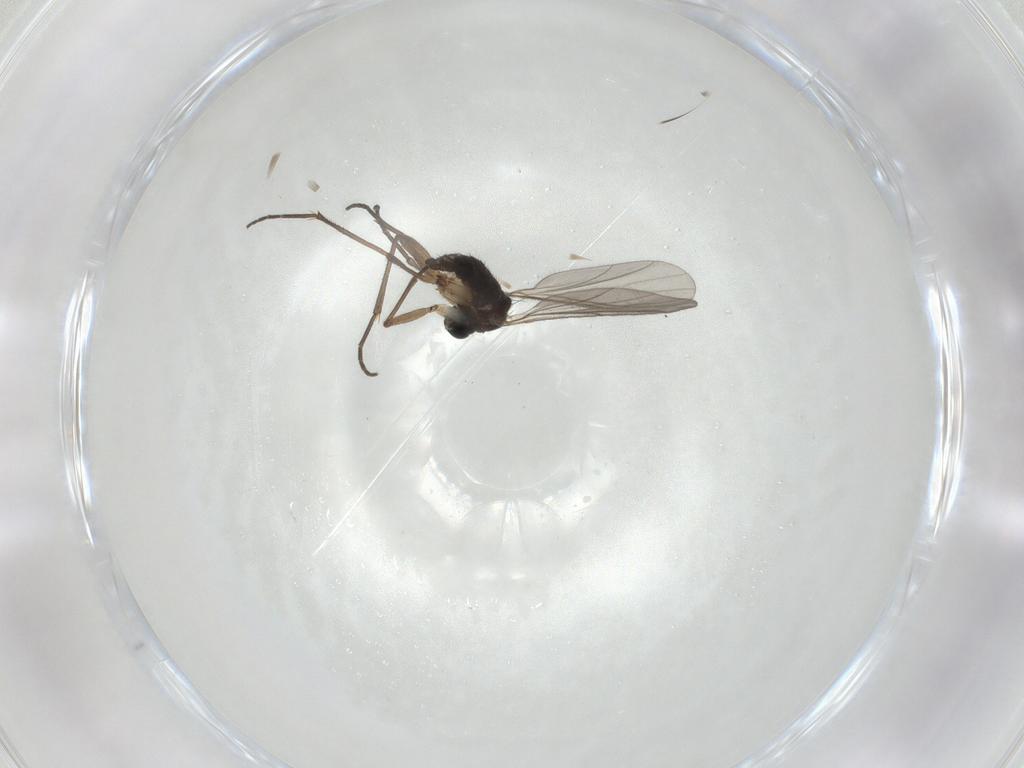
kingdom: Animalia
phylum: Arthropoda
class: Insecta
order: Diptera
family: Sciaridae
